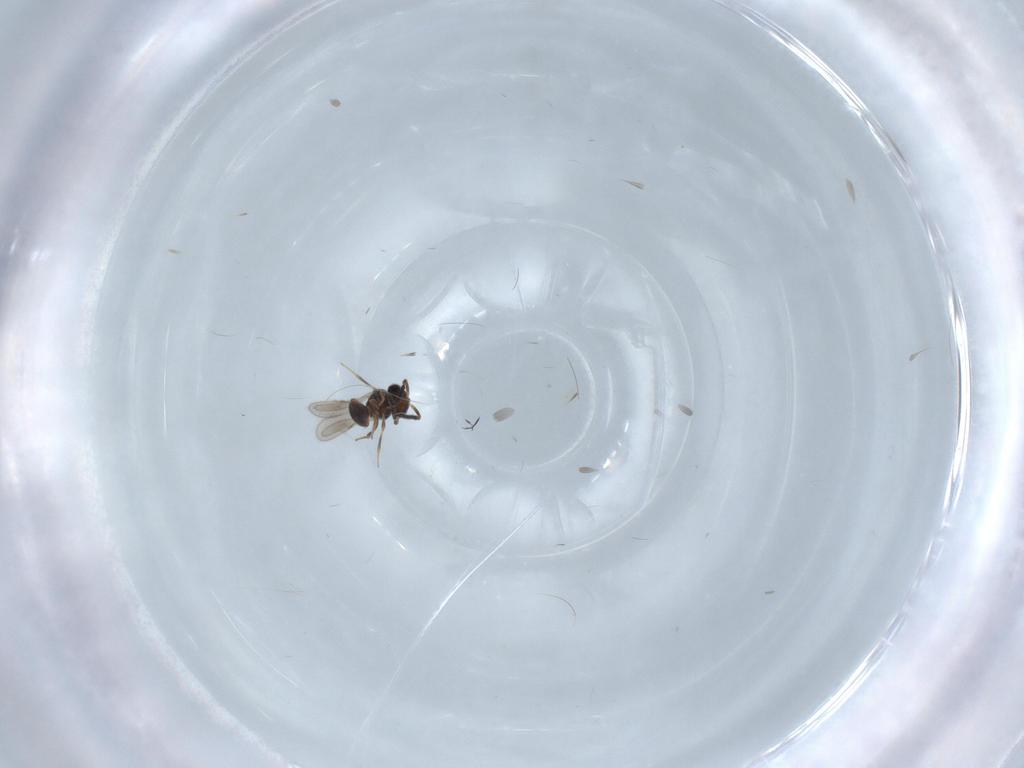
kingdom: Animalia
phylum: Arthropoda
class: Insecta
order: Hymenoptera
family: Scelionidae
